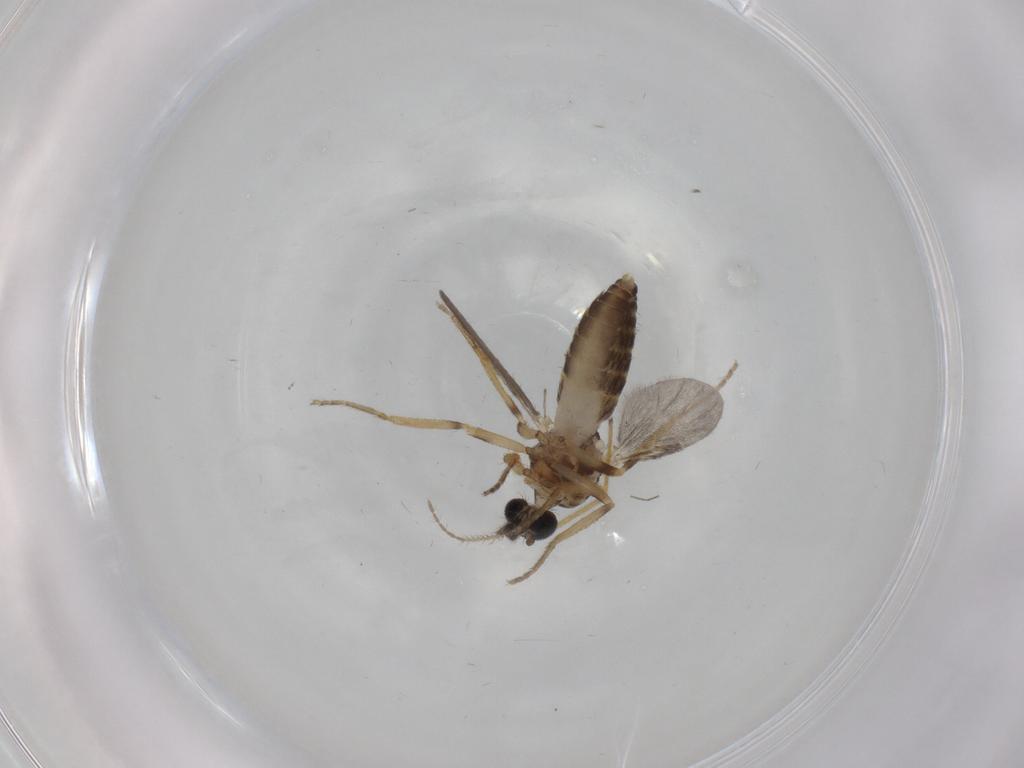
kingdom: Animalia
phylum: Arthropoda
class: Insecta
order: Diptera
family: Ceratopogonidae
